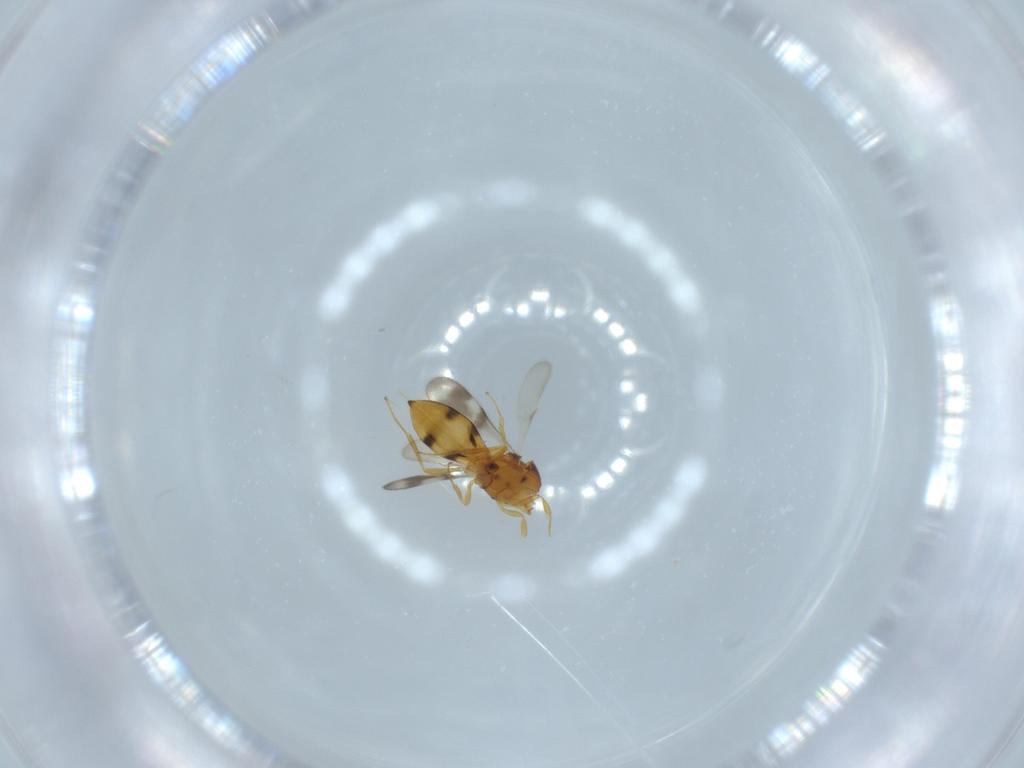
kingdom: Animalia
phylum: Arthropoda
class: Insecta
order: Hymenoptera
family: Scelionidae
